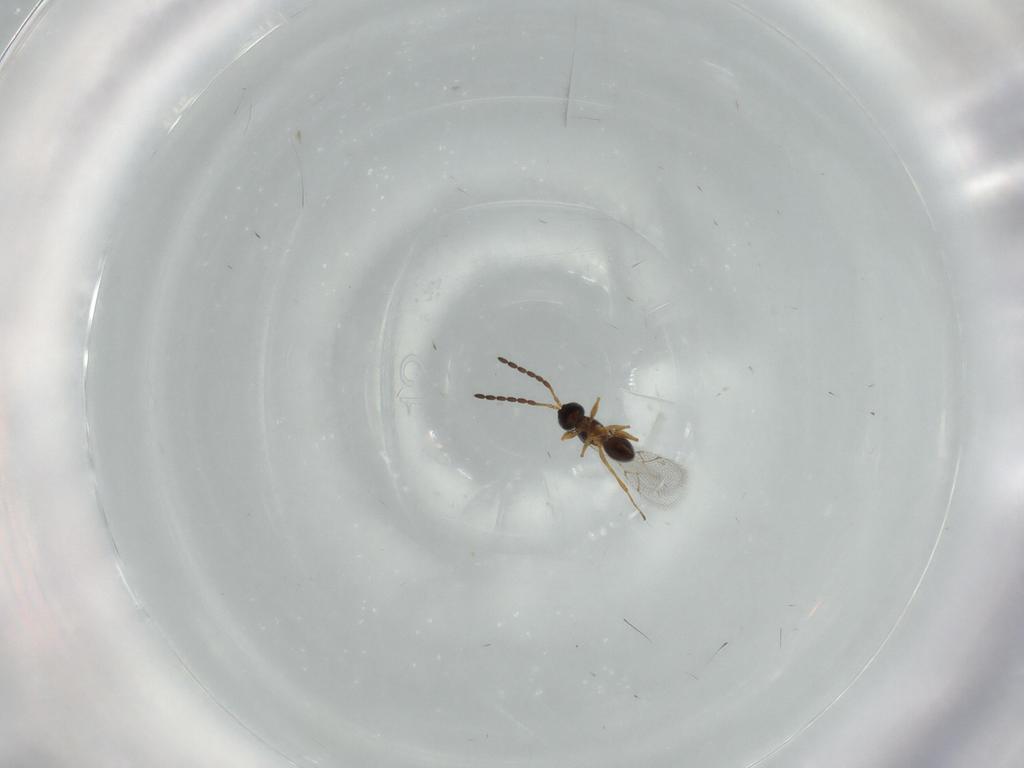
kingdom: Animalia
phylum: Arthropoda
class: Insecta
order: Hymenoptera
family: Figitidae
